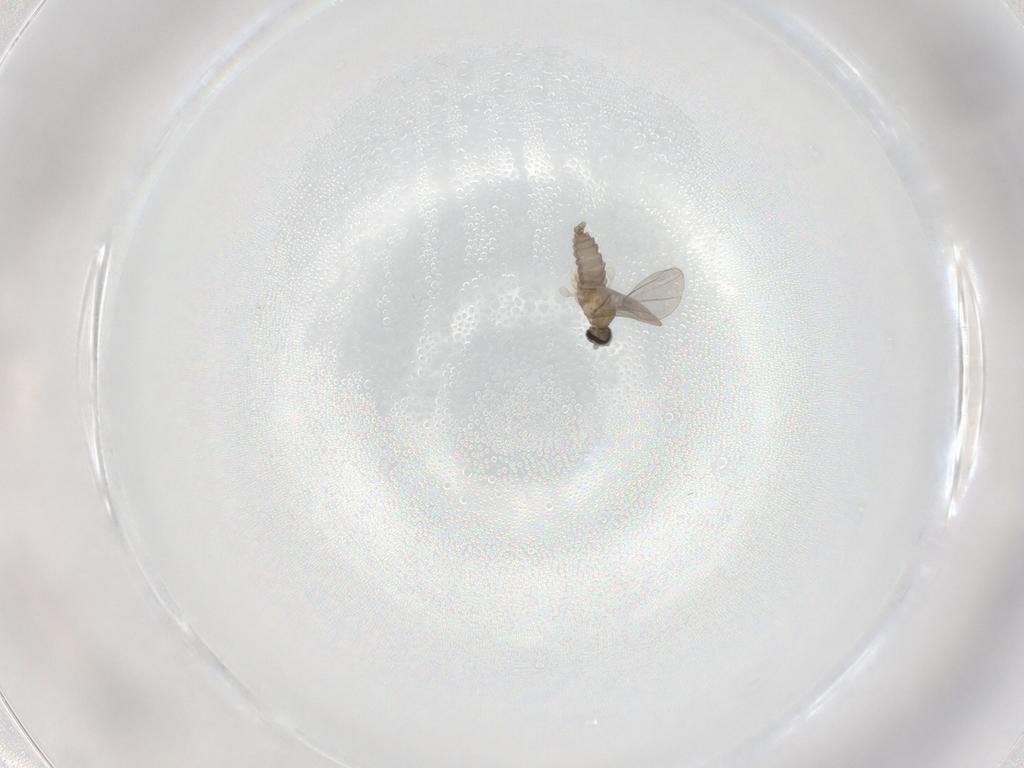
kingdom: Animalia
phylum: Arthropoda
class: Insecta
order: Diptera
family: Cecidomyiidae
